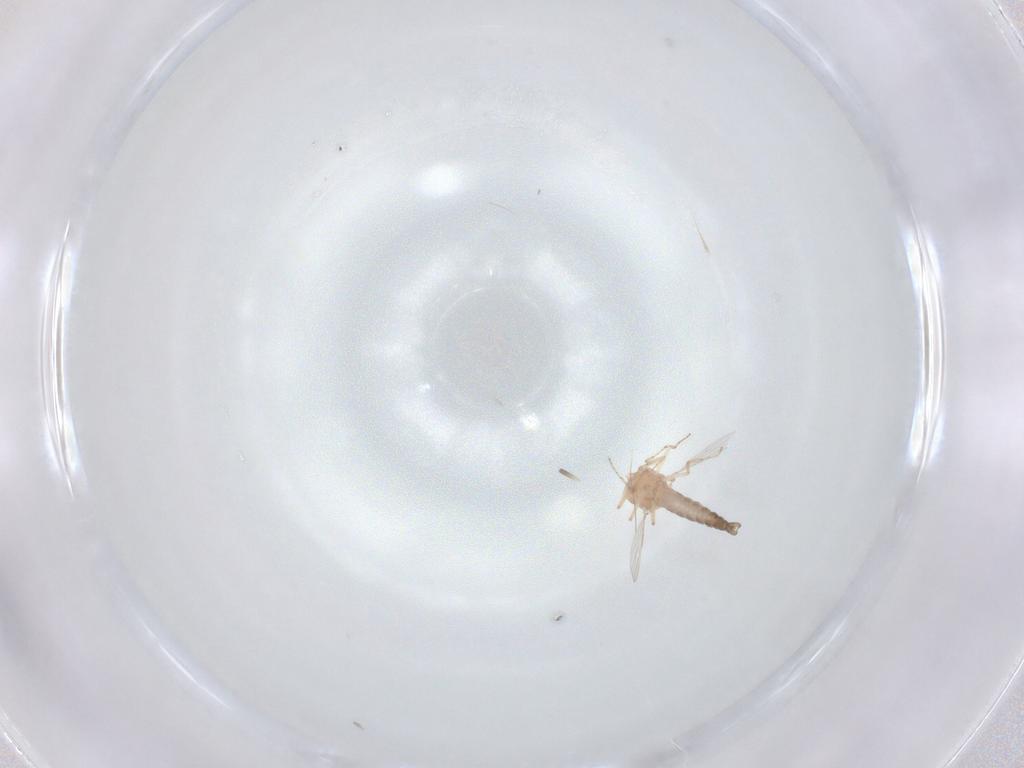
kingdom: Animalia
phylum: Arthropoda
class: Insecta
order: Diptera
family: Ceratopogonidae
